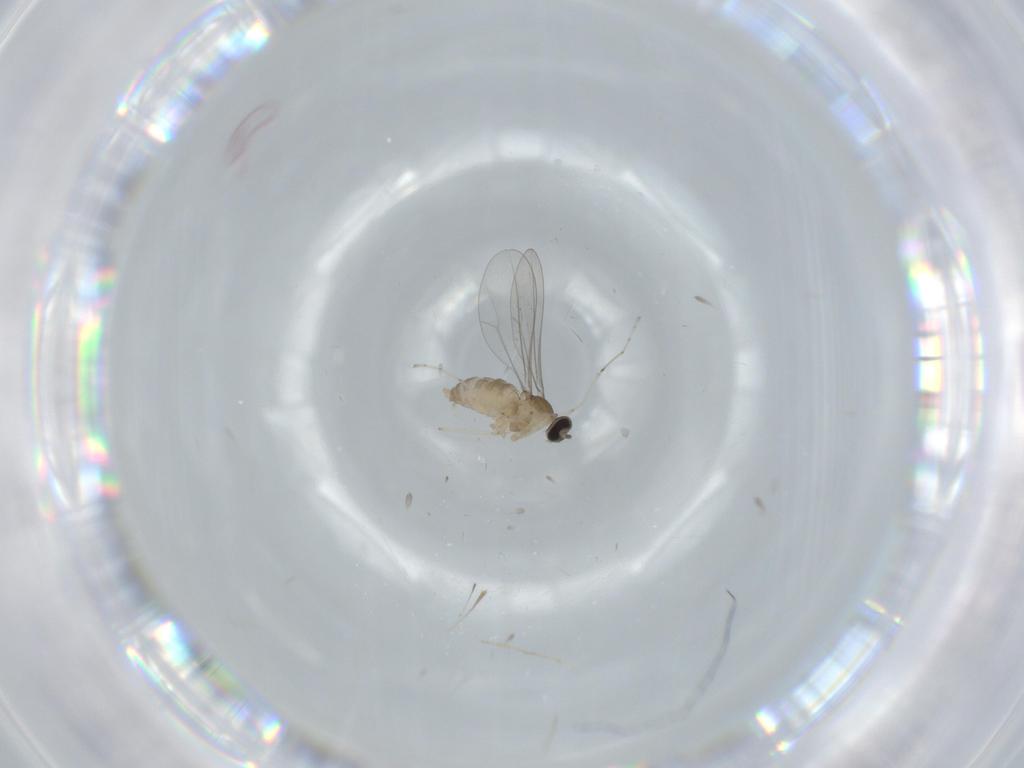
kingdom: Animalia
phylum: Arthropoda
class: Insecta
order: Diptera
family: Psychodidae
